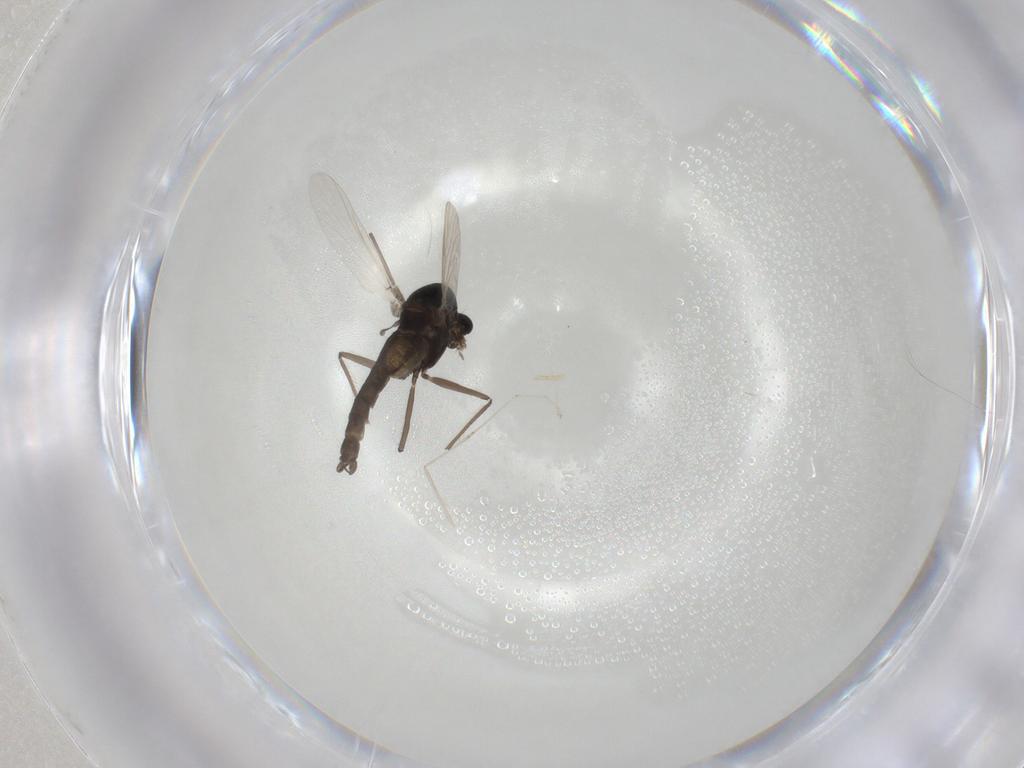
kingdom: Animalia
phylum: Arthropoda
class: Insecta
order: Diptera
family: Chironomidae
